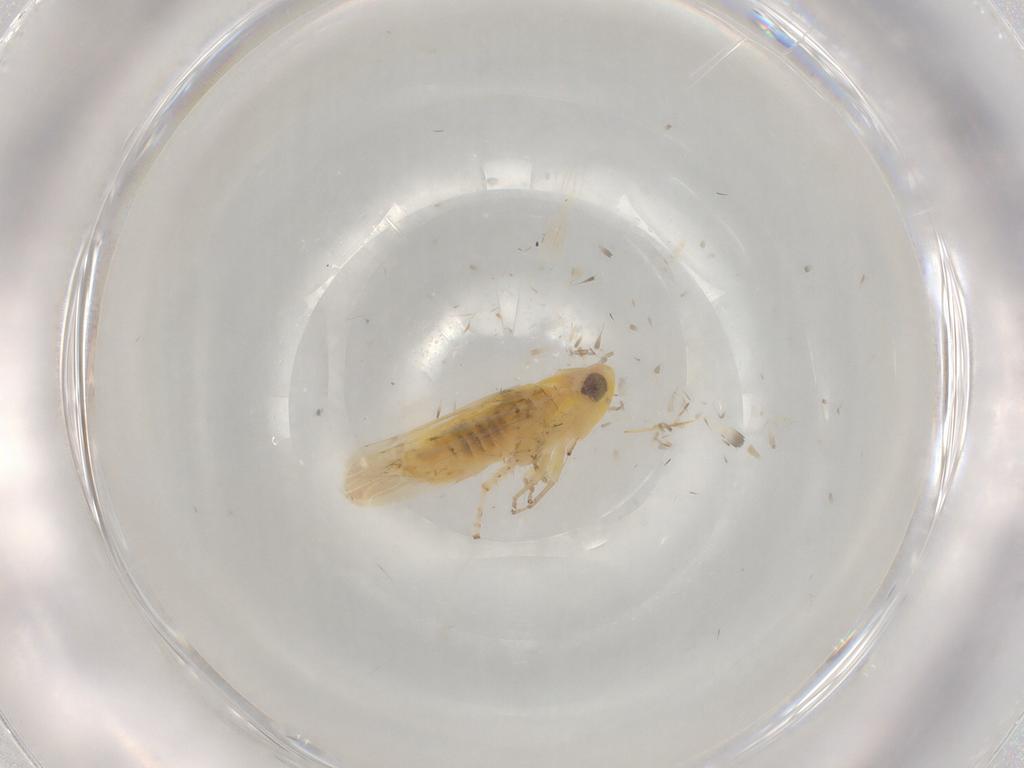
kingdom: Animalia
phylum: Arthropoda
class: Insecta
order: Hemiptera
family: Cicadellidae
